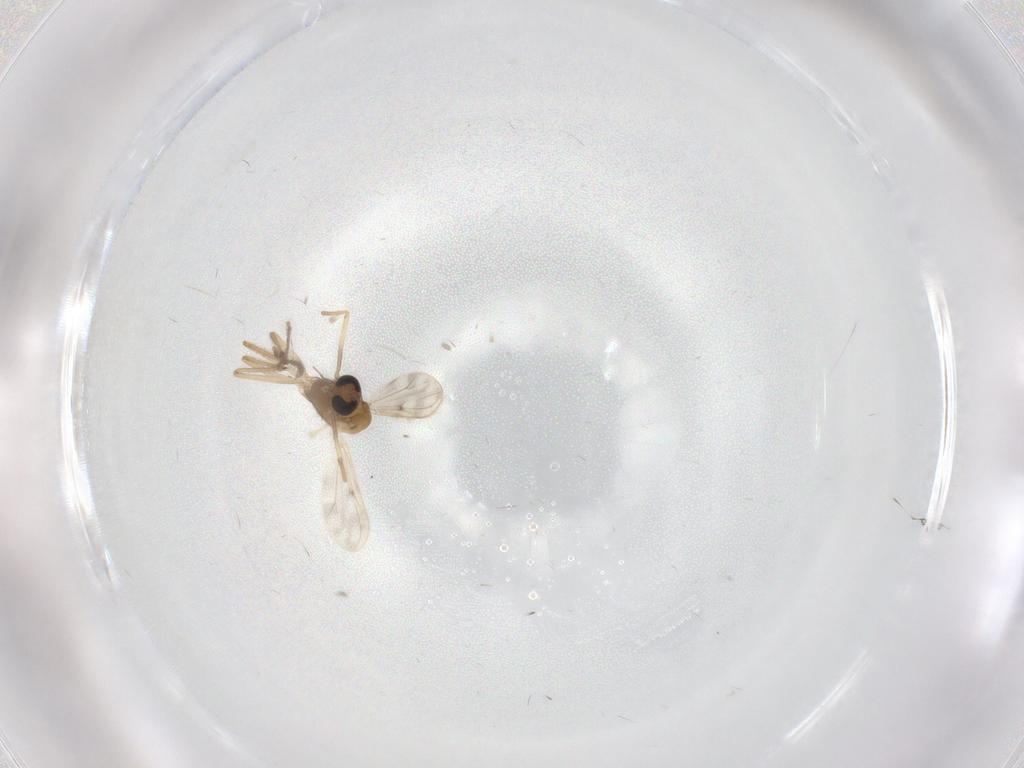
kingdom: Animalia
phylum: Arthropoda
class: Insecta
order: Diptera
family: Chironomidae
